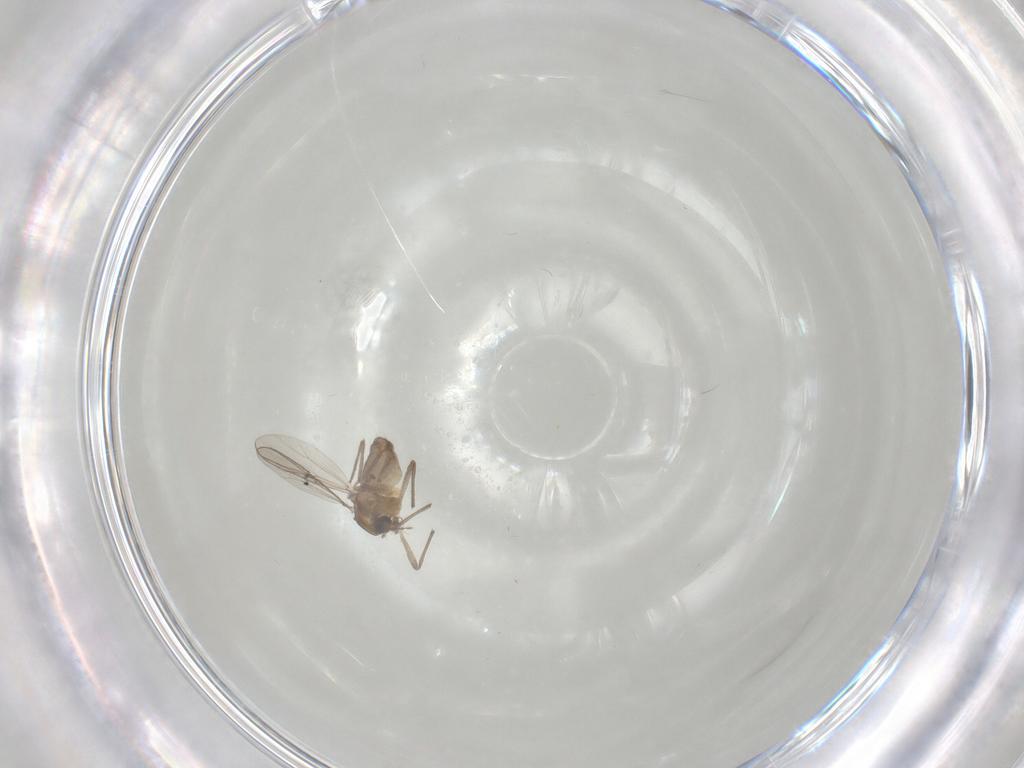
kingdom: Animalia
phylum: Arthropoda
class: Insecta
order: Diptera
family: Chironomidae
